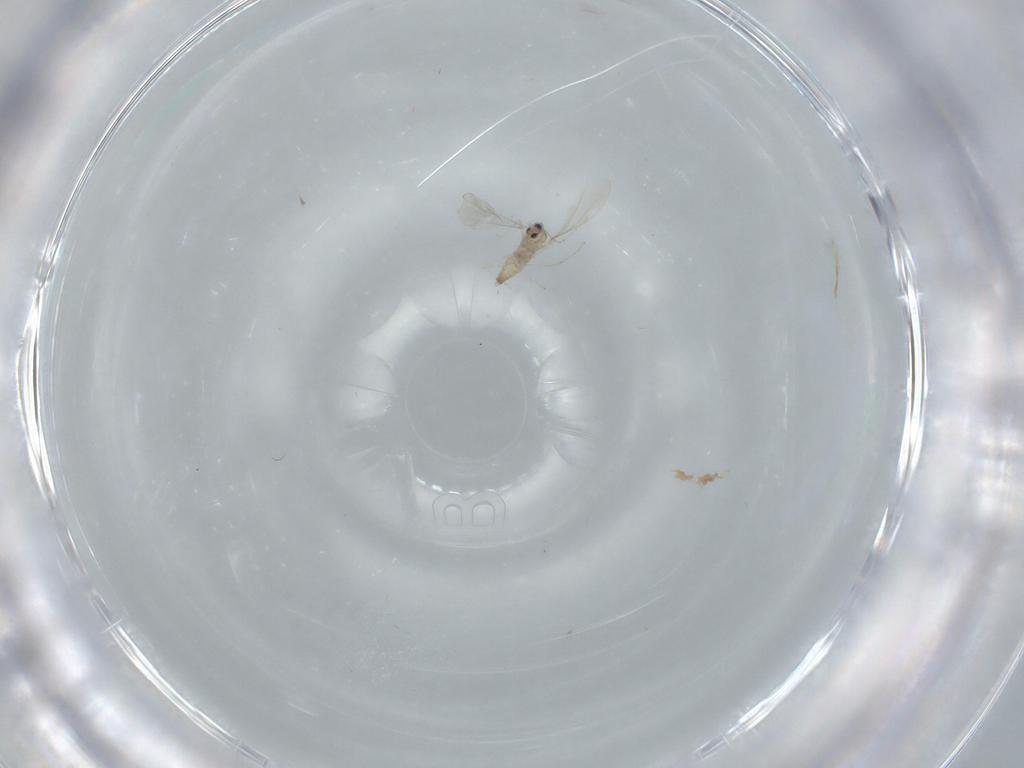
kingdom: Animalia
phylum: Arthropoda
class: Insecta
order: Diptera
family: Cecidomyiidae
